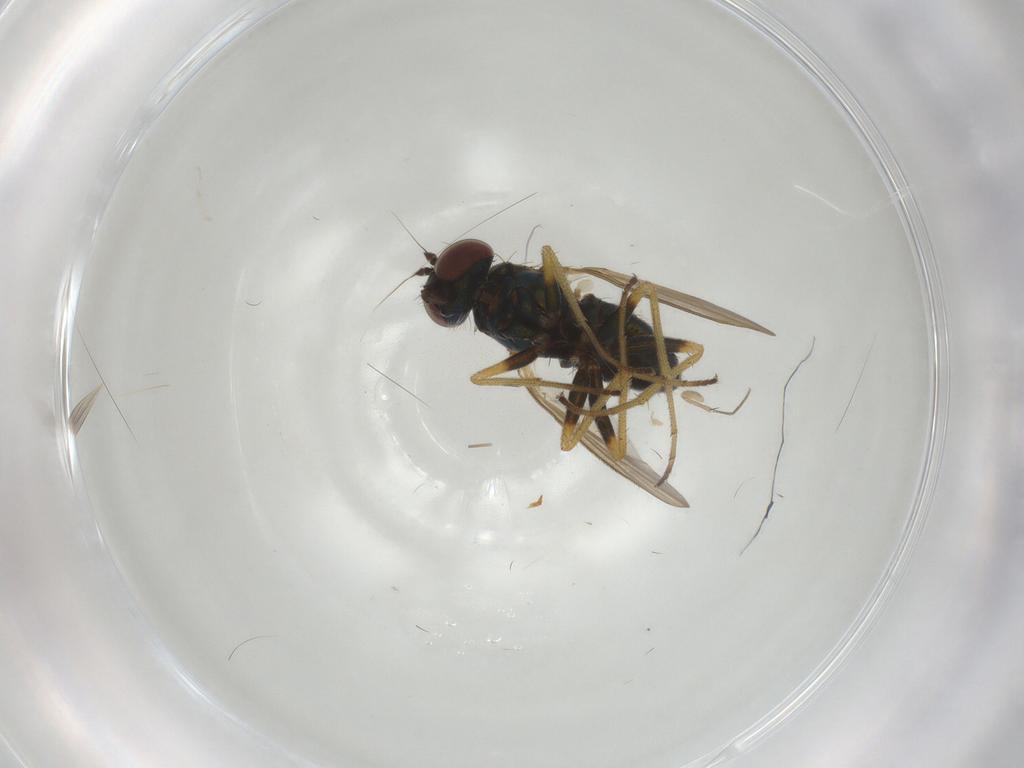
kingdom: Animalia
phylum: Arthropoda
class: Insecta
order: Diptera
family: Dolichopodidae
